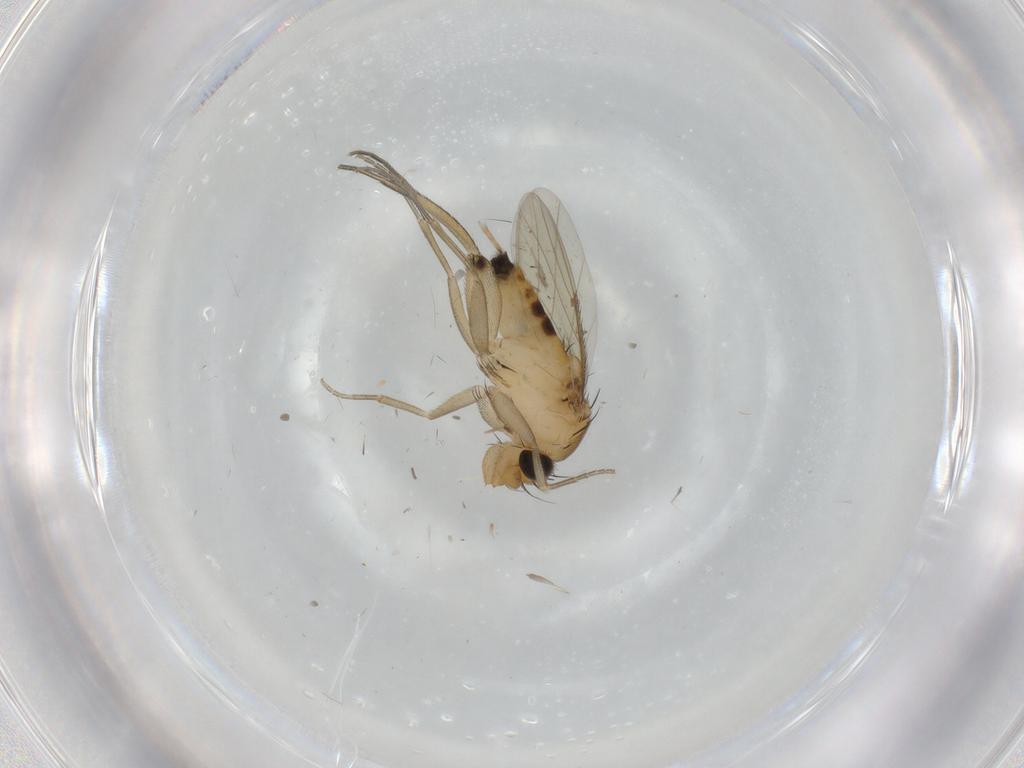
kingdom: Animalia
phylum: Arthropoda
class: Insecta
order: Diptera
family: Phoridae
